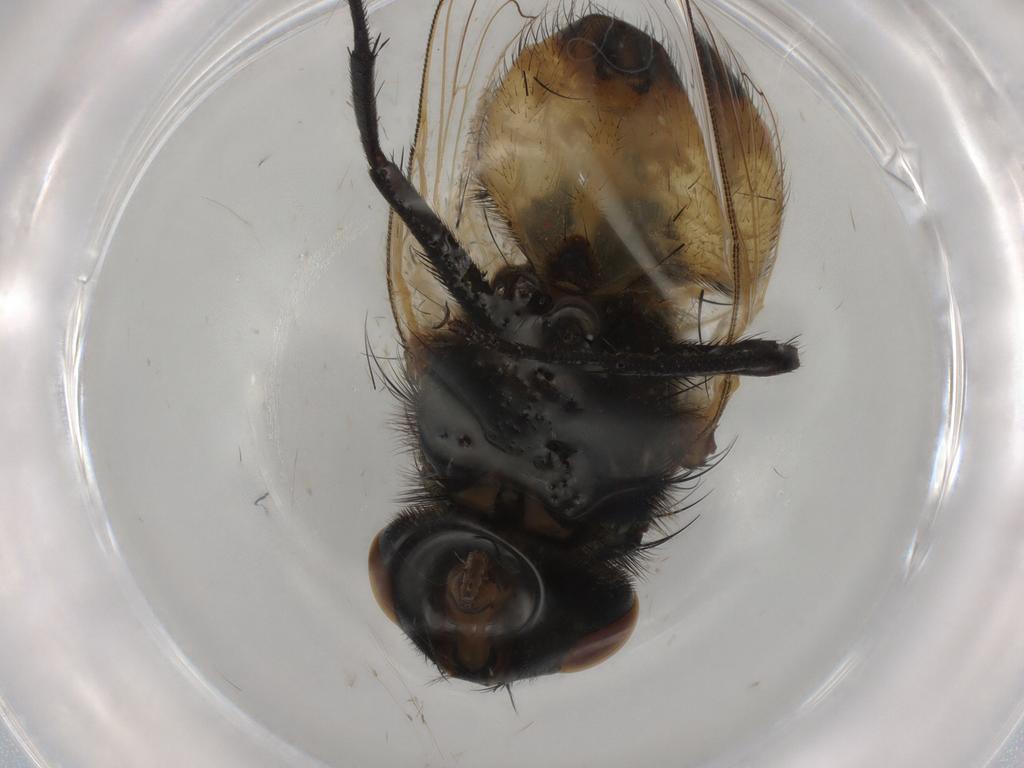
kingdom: Animalia
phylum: Arthropoda
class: Insecta
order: Diptera
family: Muscidae
